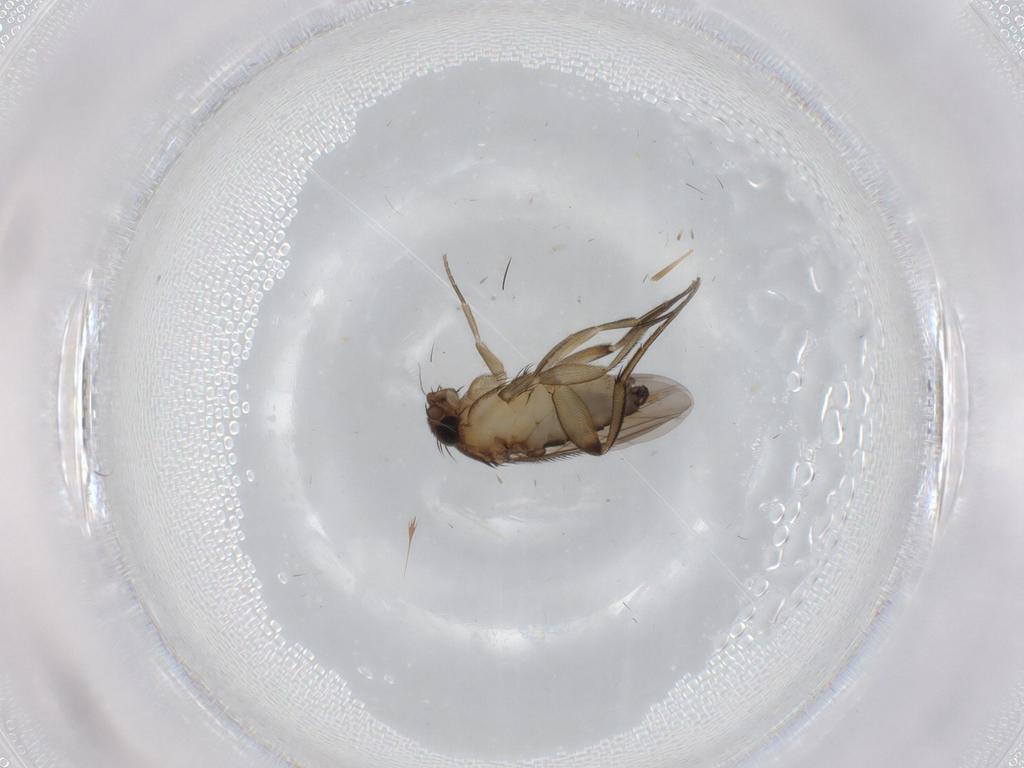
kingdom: Animalia
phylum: Arthropoda
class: Insecta
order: Diptera
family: Phoridae
